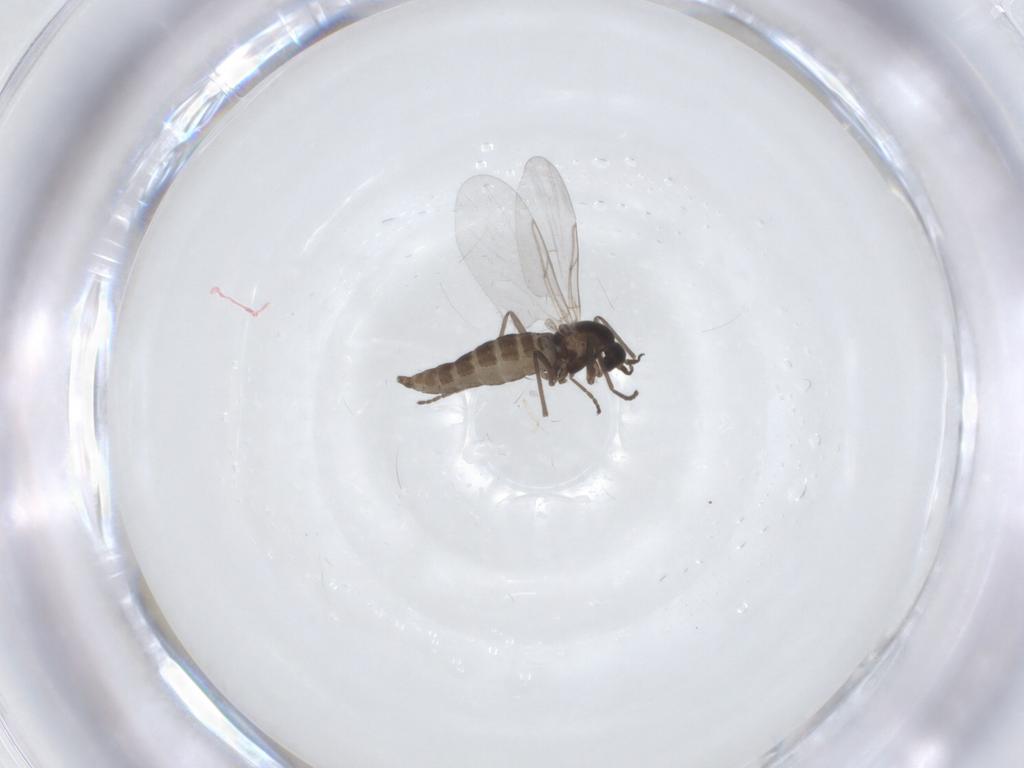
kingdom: Animalia
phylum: Arthropoda
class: Insecta
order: Diptera
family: Cecidomyiidae
